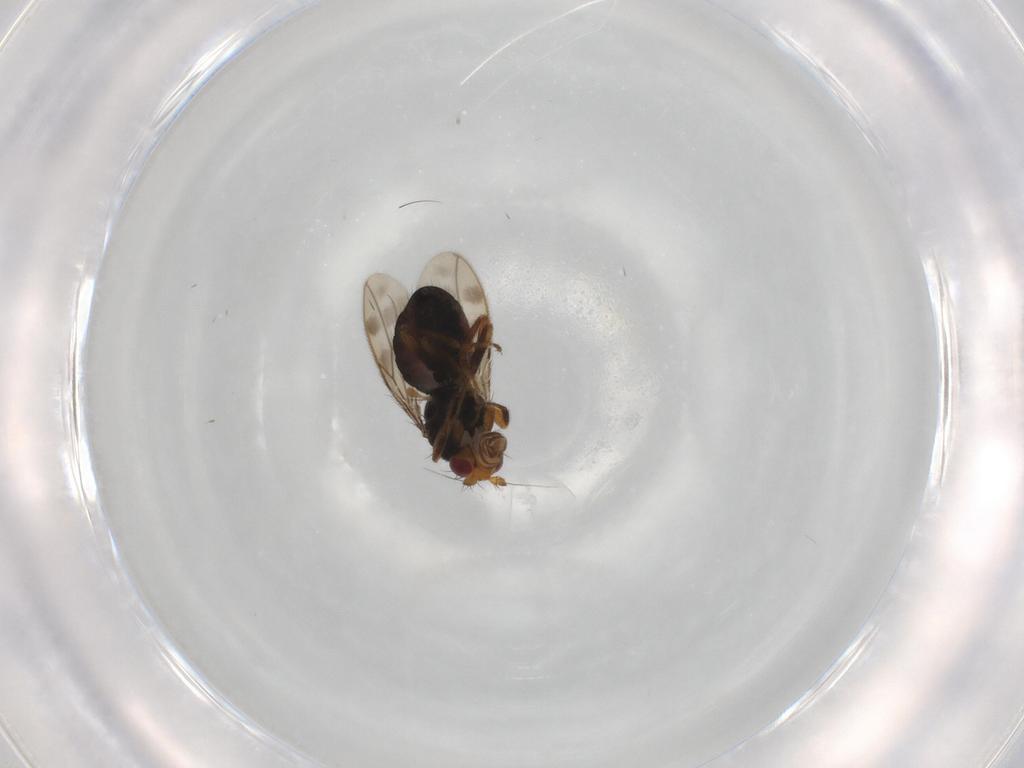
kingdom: Animalia
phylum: Arthropoda
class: Insecta
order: Diptera
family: Sphaeroceridae
